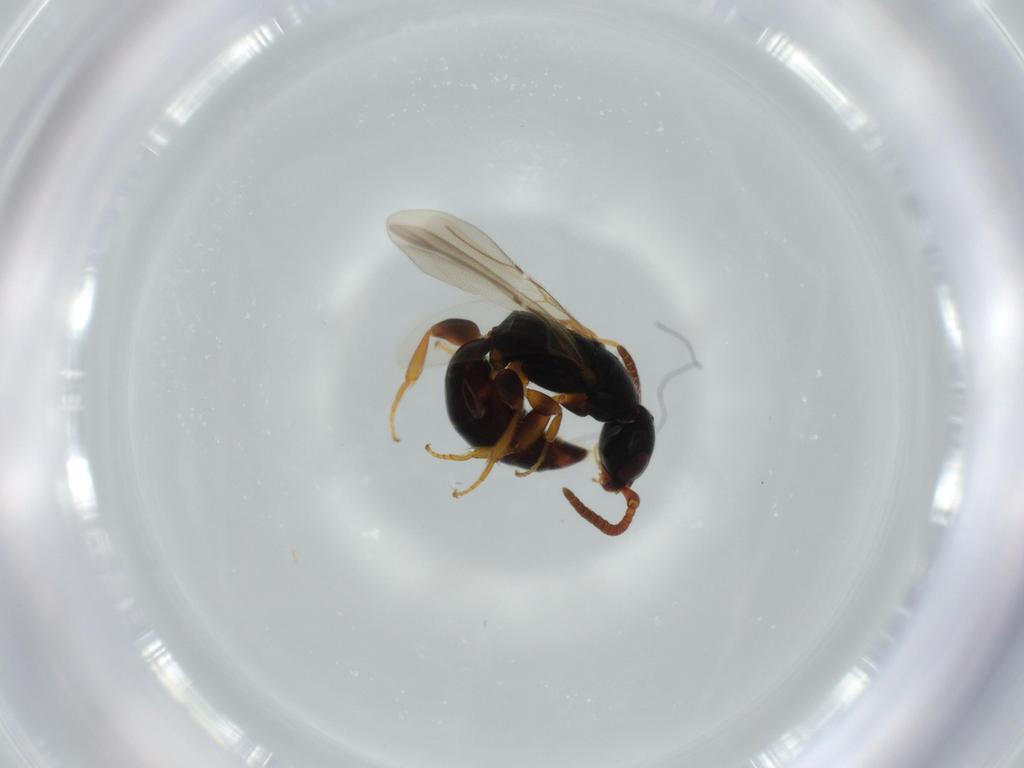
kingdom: Animalia
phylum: Arthropoda
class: Insecta
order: Hymenoptera
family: Bethylidae
